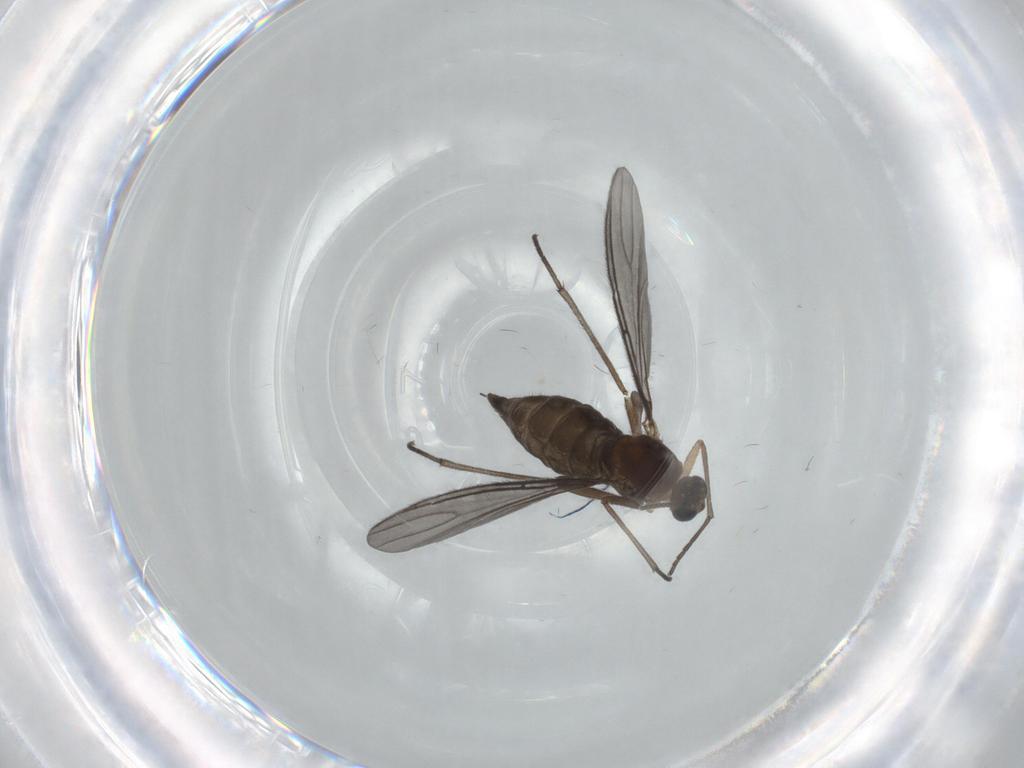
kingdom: Animalia
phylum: Arthropoda
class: Insecta
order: Diptera
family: Sciaridae
